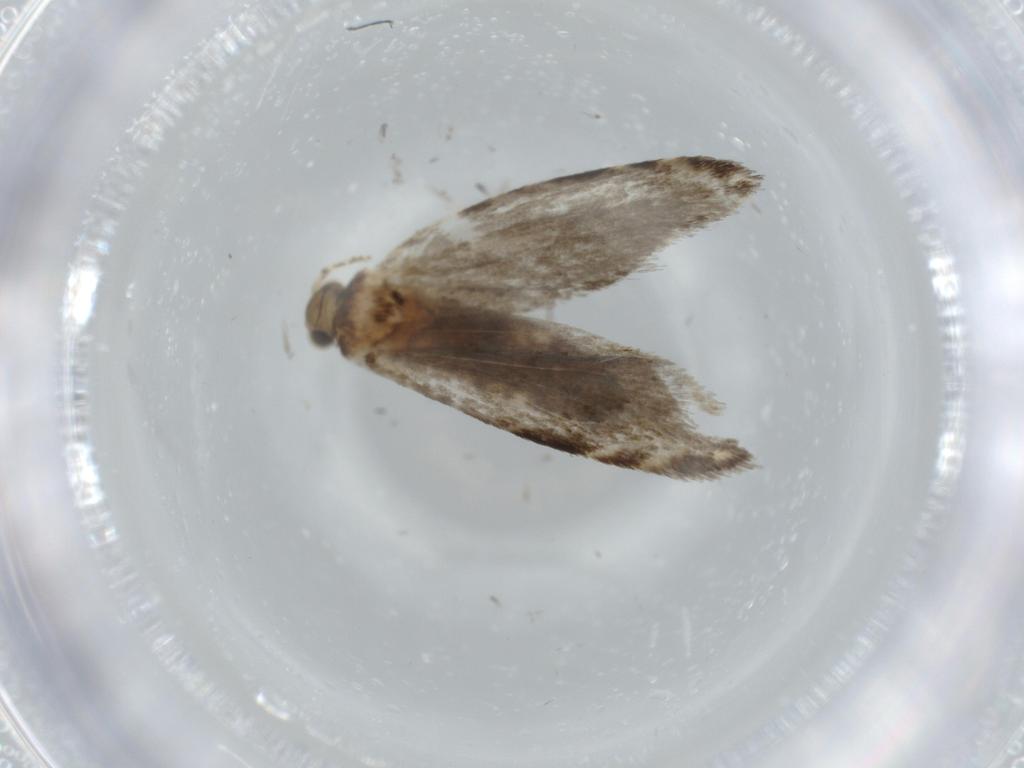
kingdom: Animalia
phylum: Arthropoda
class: Insecta
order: Lepidoptera
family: Tineidae
